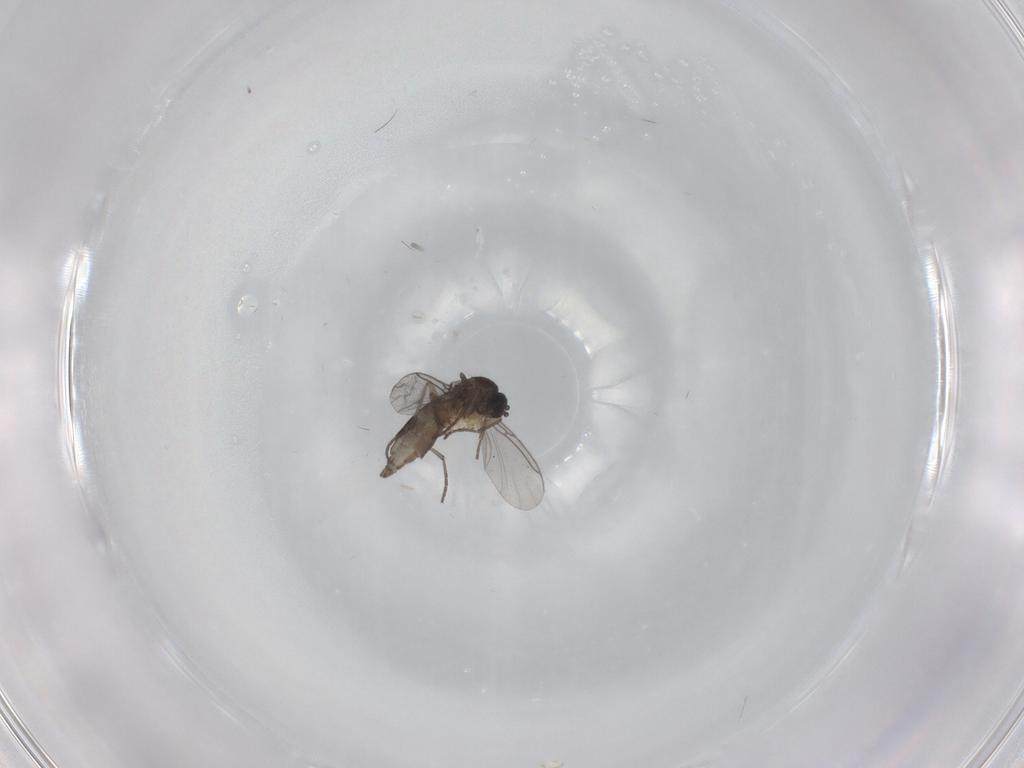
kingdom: Animalia
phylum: Arthropoda
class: Insecta
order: Diptera
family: Sciaridae
